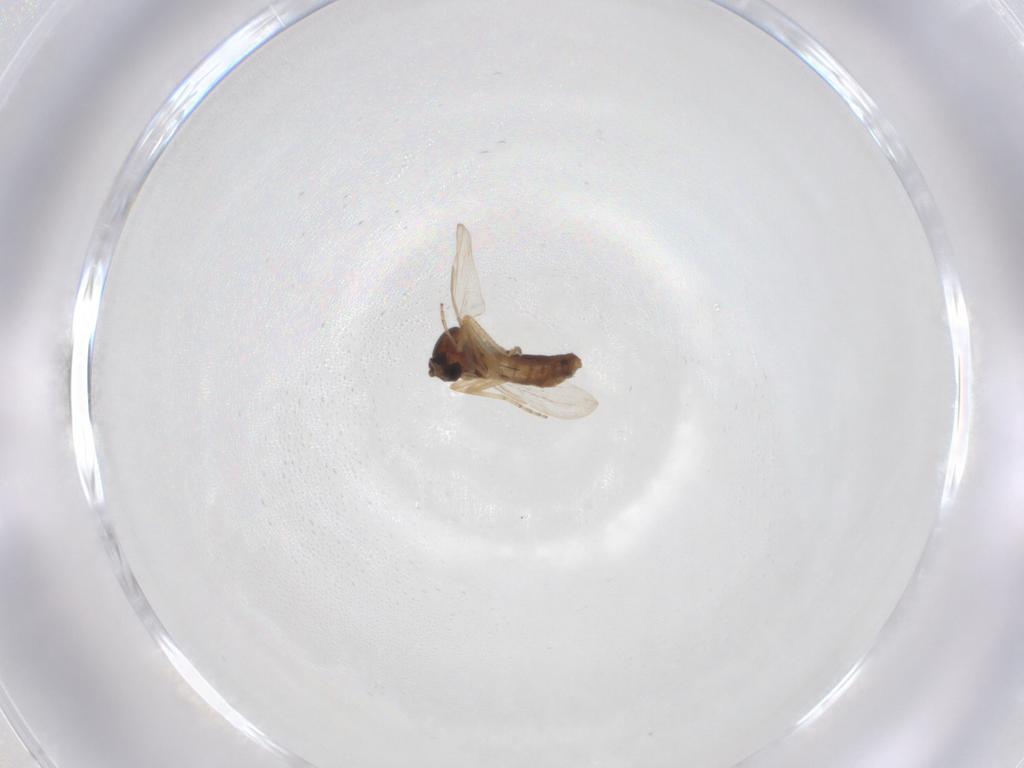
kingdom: Animalia
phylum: Arthropoda
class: Insecta
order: Diptera
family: Ceratopogonidae
